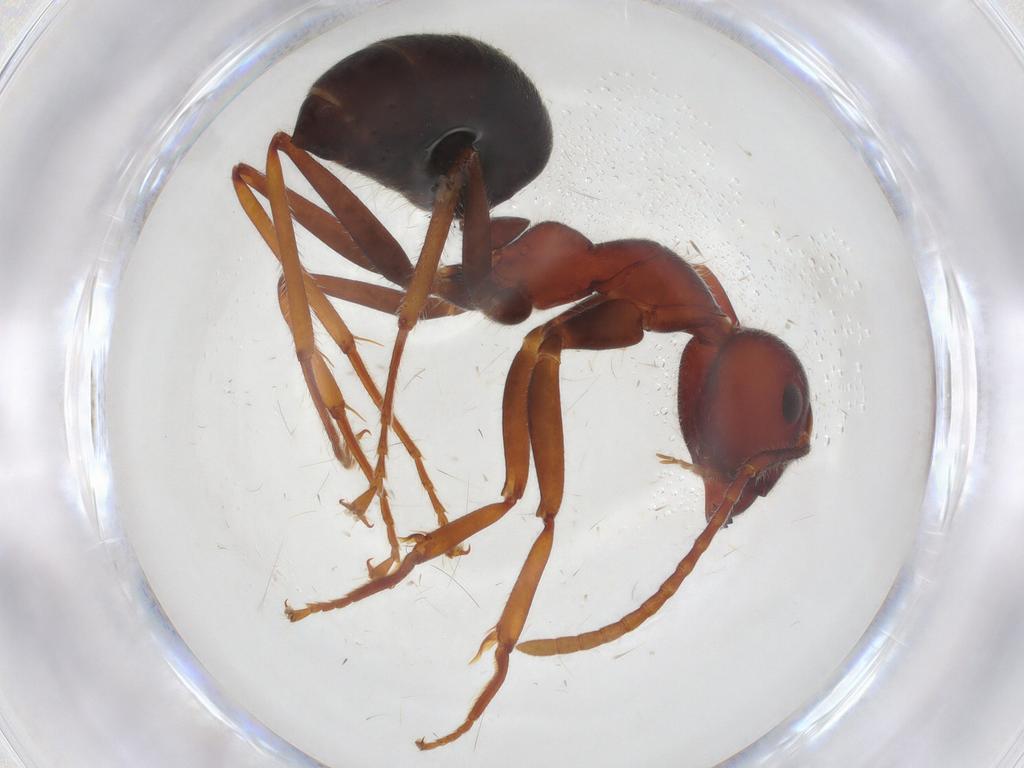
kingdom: Animalia
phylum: Arthropoda
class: Insecta
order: Hymenoptera
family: Formicidae
